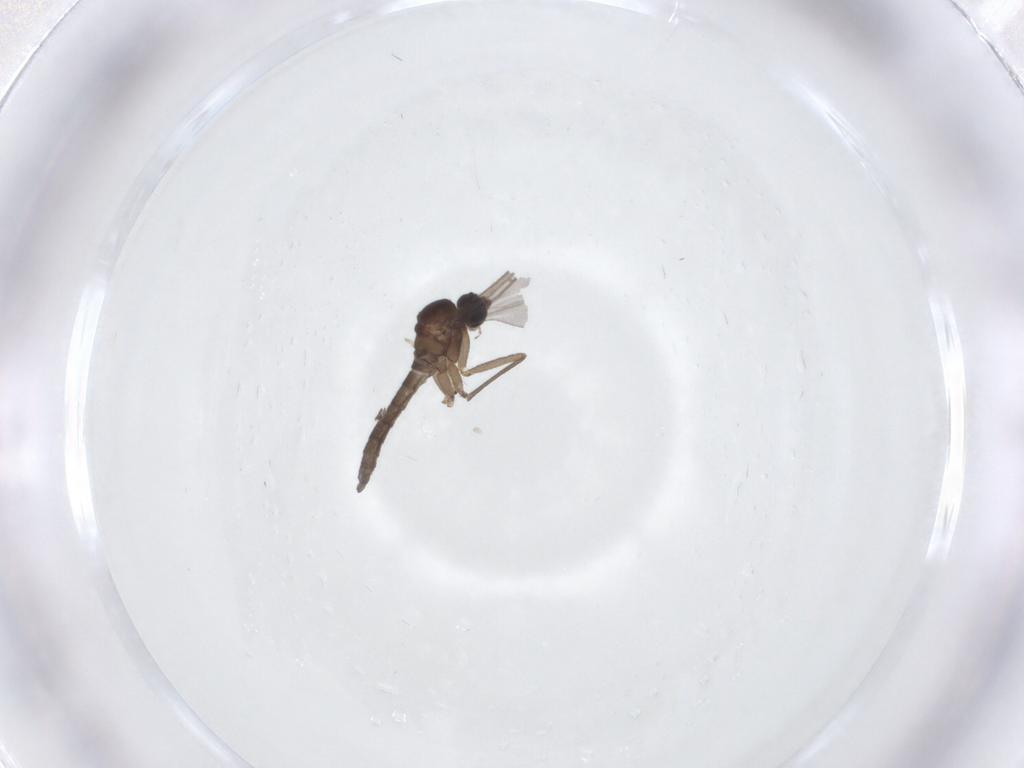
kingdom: Animalia
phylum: Arthropoda
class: Insecta
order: Diptera
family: Sciaridae
